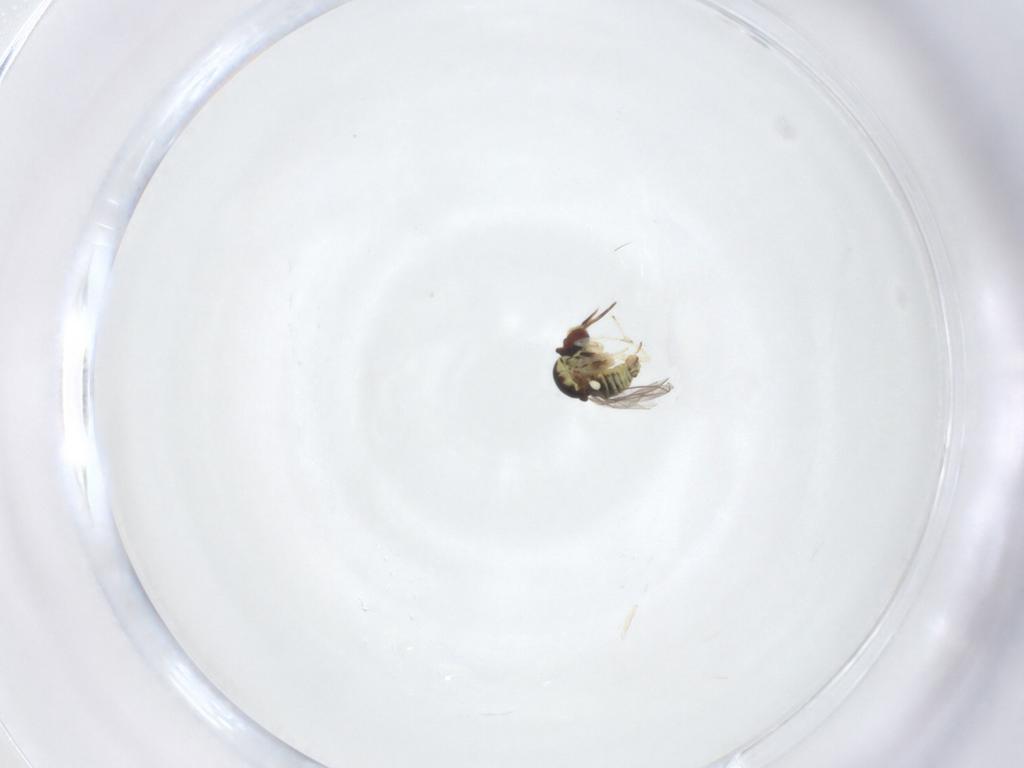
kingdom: Animalia
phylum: Arthropoda
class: Insecta
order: Diptera
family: Mythicomyiidae
